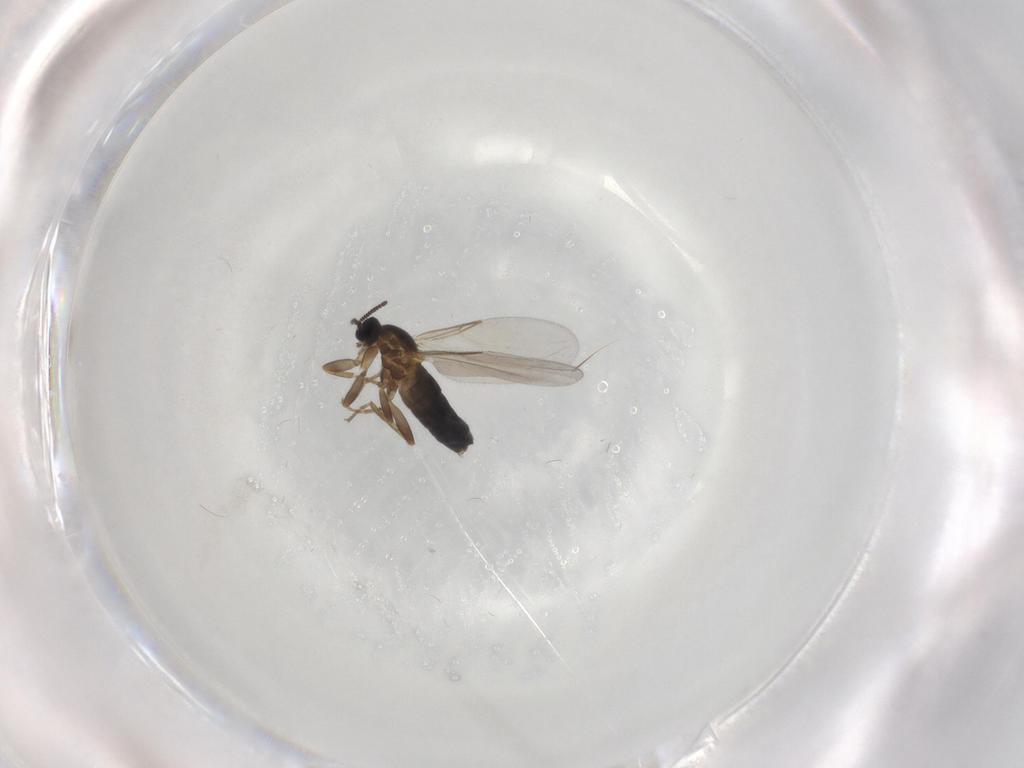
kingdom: Animalia
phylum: Arthropoda
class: Insecta
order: Diptera
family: Scatopsidae
